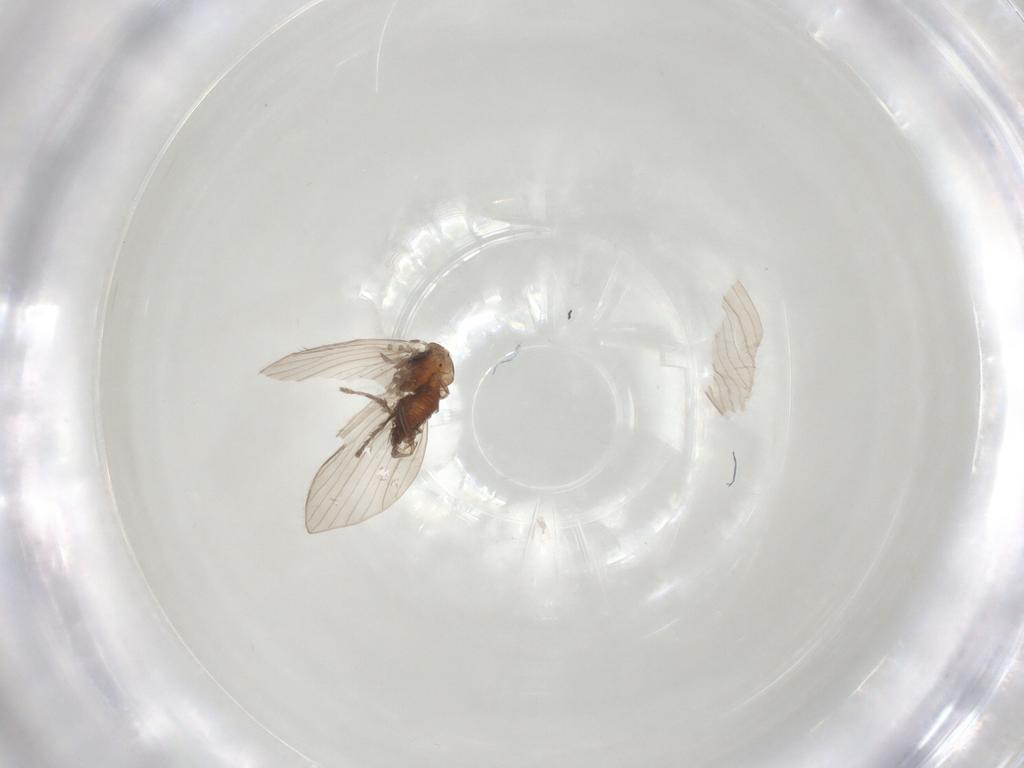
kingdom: Animalia
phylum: Arthropoda
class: Insecta
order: Diptera
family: Psychodidae
